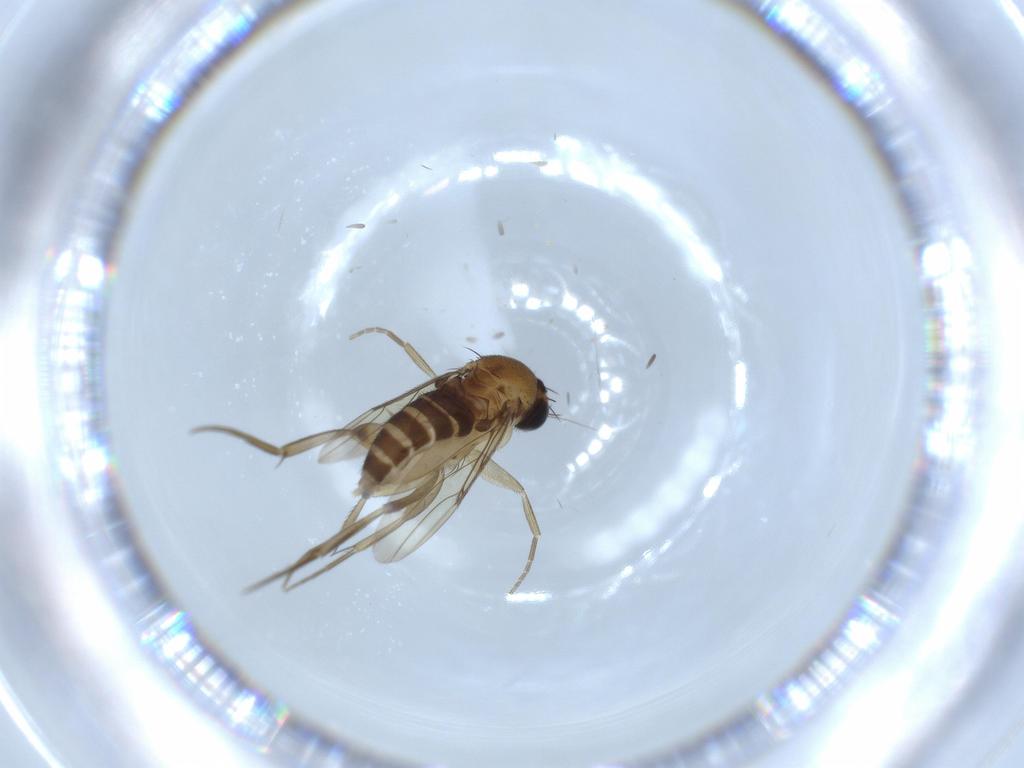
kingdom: Animalia
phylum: Arthropoda
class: Insecta
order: Diptera
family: Phoridae
